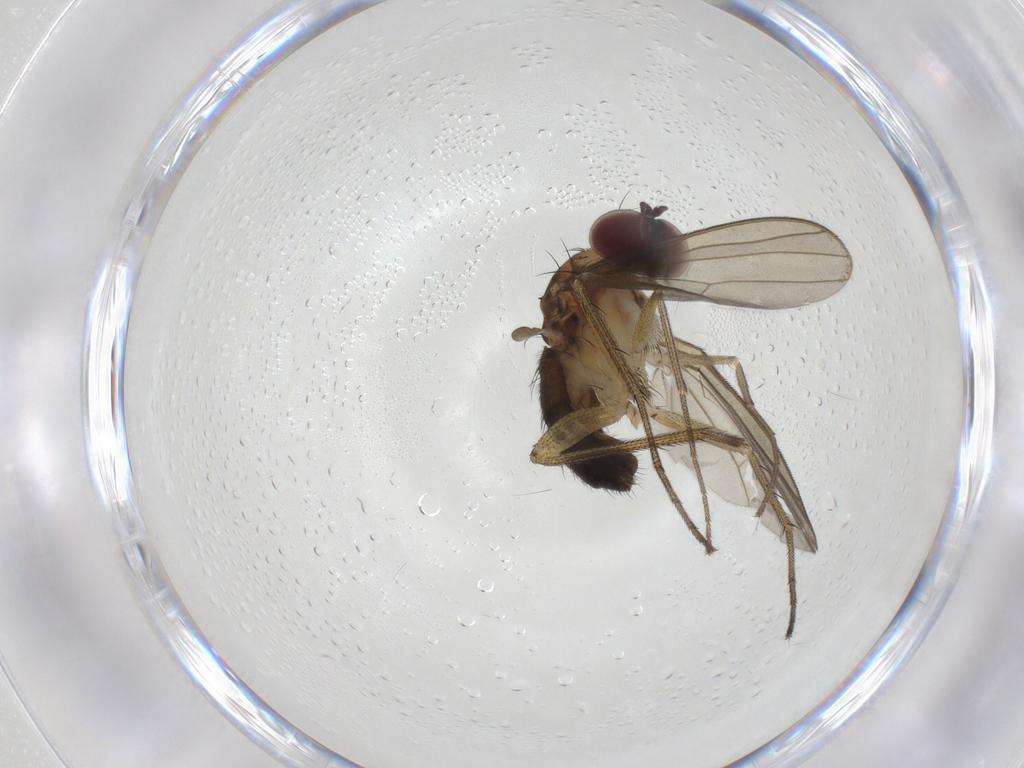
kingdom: Animalia
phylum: Arthropoda
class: Insecta
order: Diptera
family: Dolichopodidae
